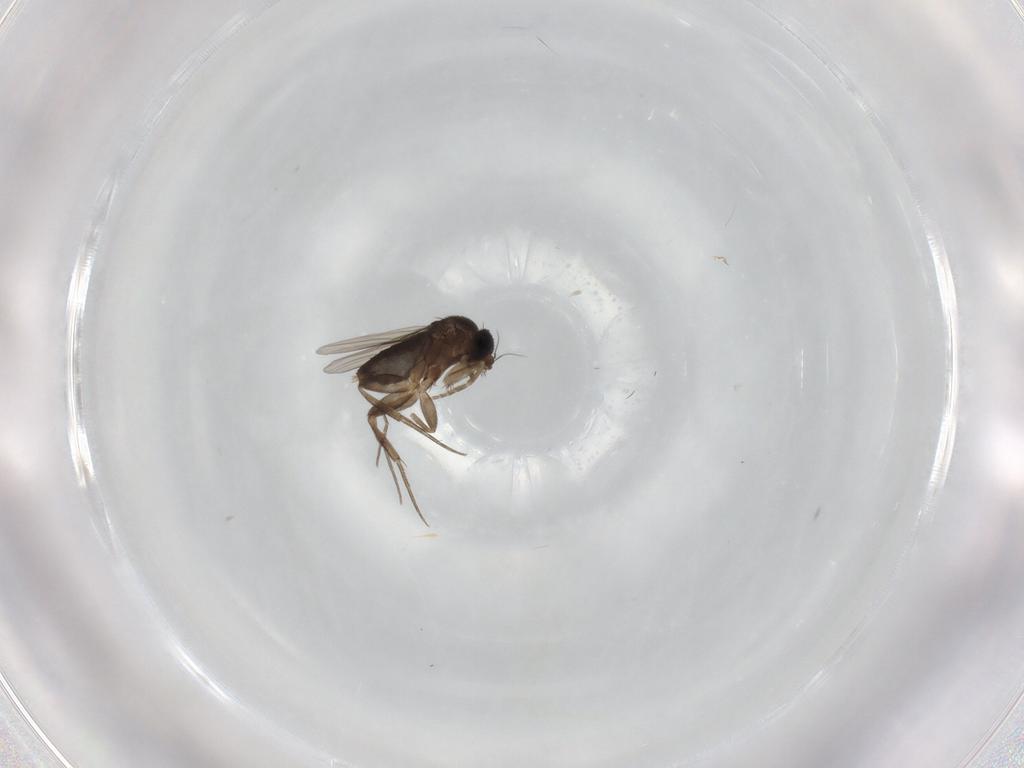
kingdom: Animalia
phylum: Arthropoda
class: Insecta
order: Diptera
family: Phoridae
